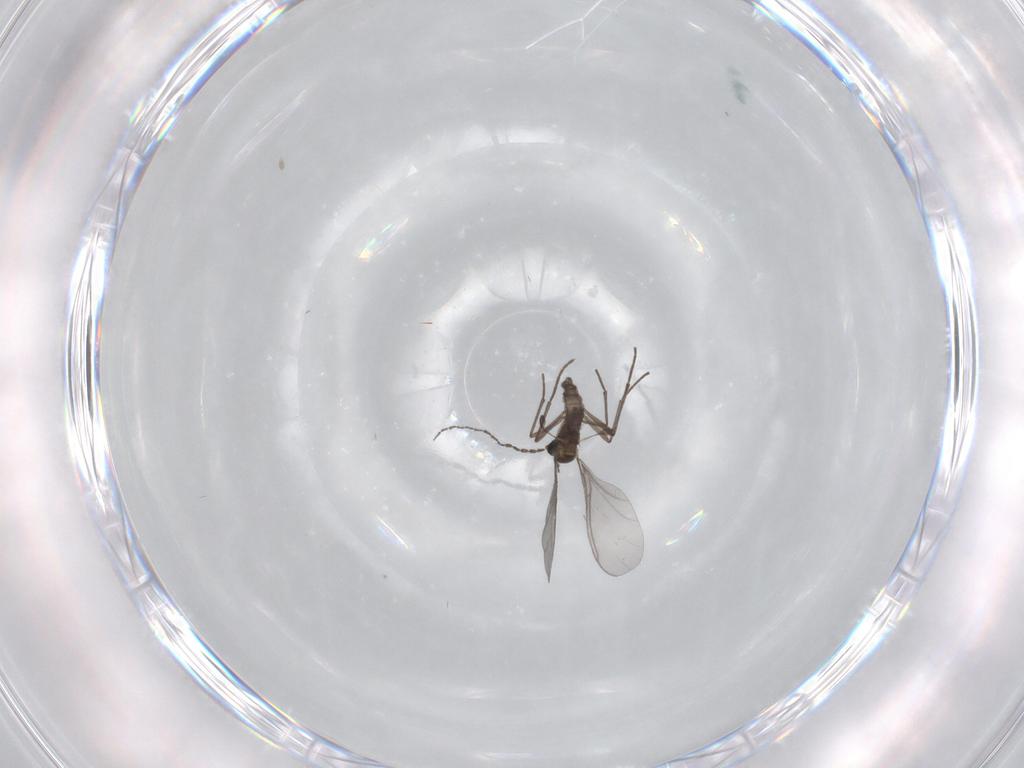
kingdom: Animalia
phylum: Arthropoda
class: Insecta
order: Diptera
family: Sciaridae
